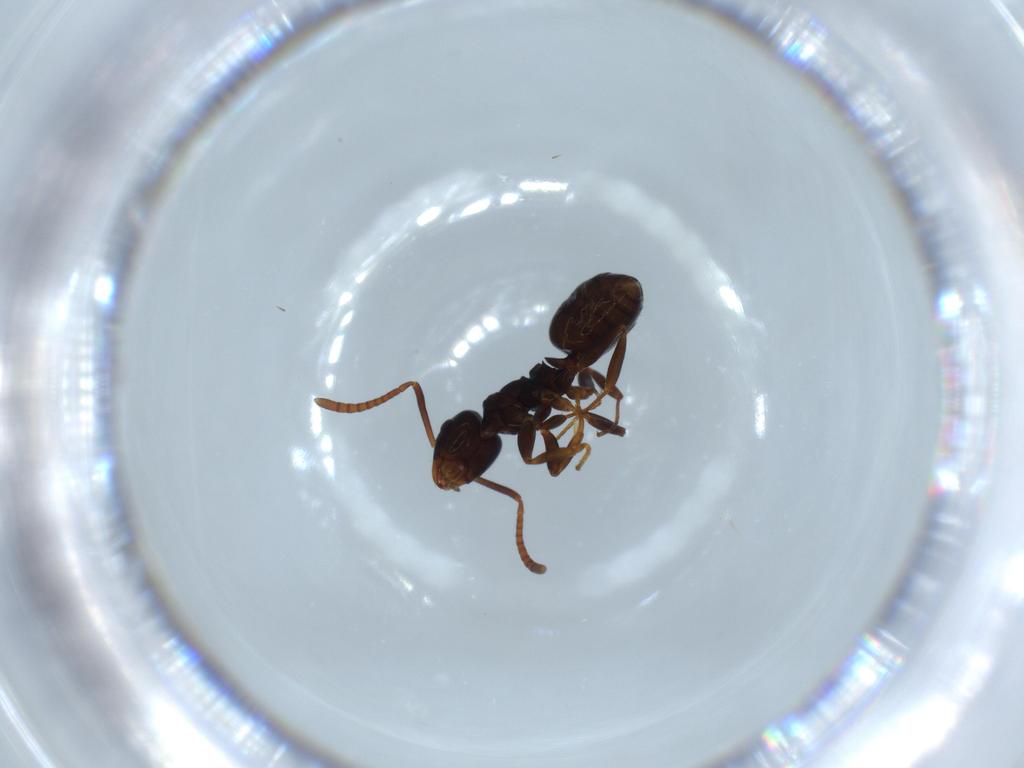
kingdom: Animalia
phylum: Arthropoda
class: Insecta
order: Hymenoptera
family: Formicidae
